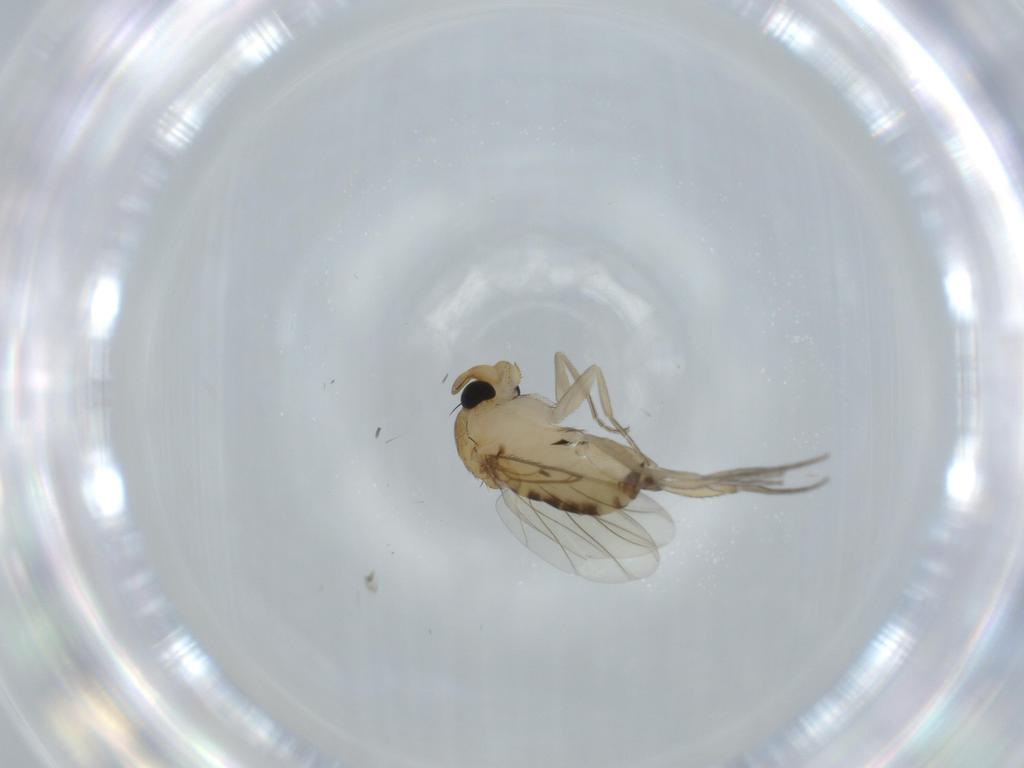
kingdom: Animalia
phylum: Arthropoda
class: Insecta
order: Diptera
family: Phoridae
